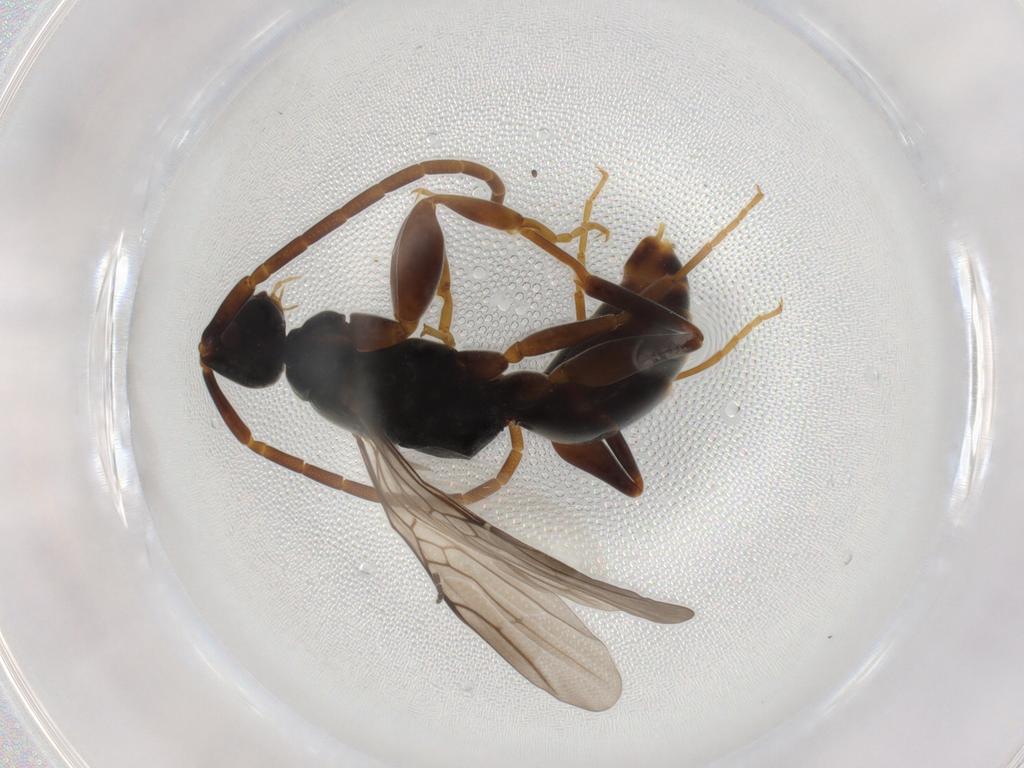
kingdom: Animalia
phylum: Arthropoda
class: Insecta
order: Hymenoptera
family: Embolemidae
